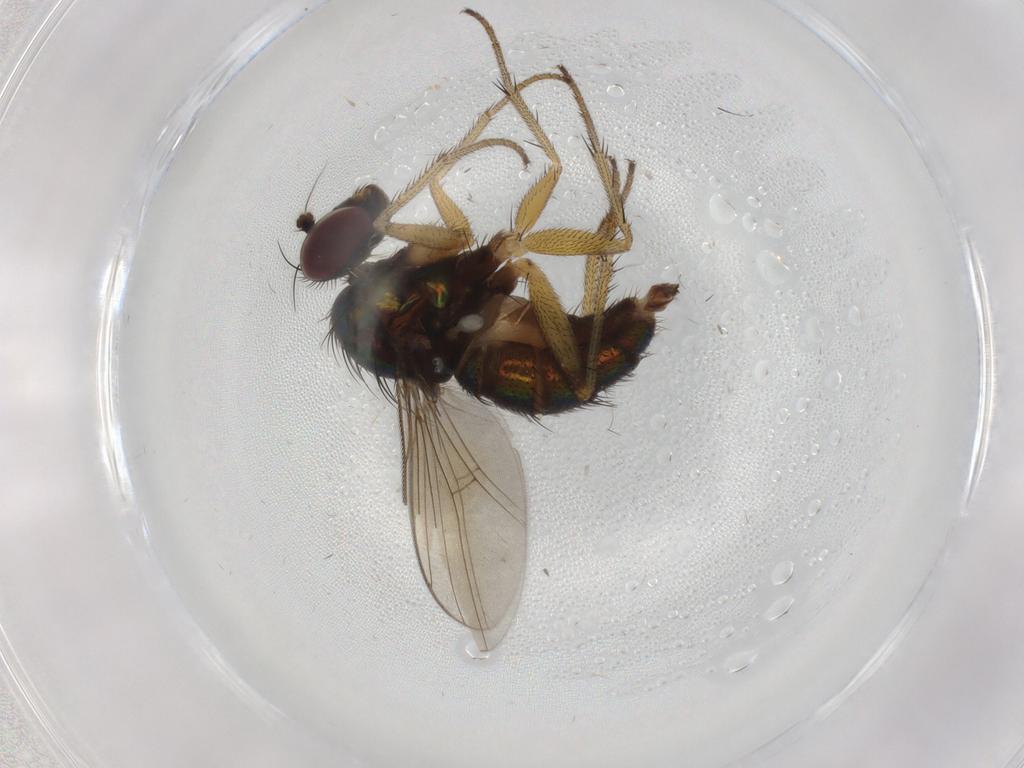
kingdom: Animalia
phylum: Arthropoda
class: Insecta
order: Diptera
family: Dolichopodidae
